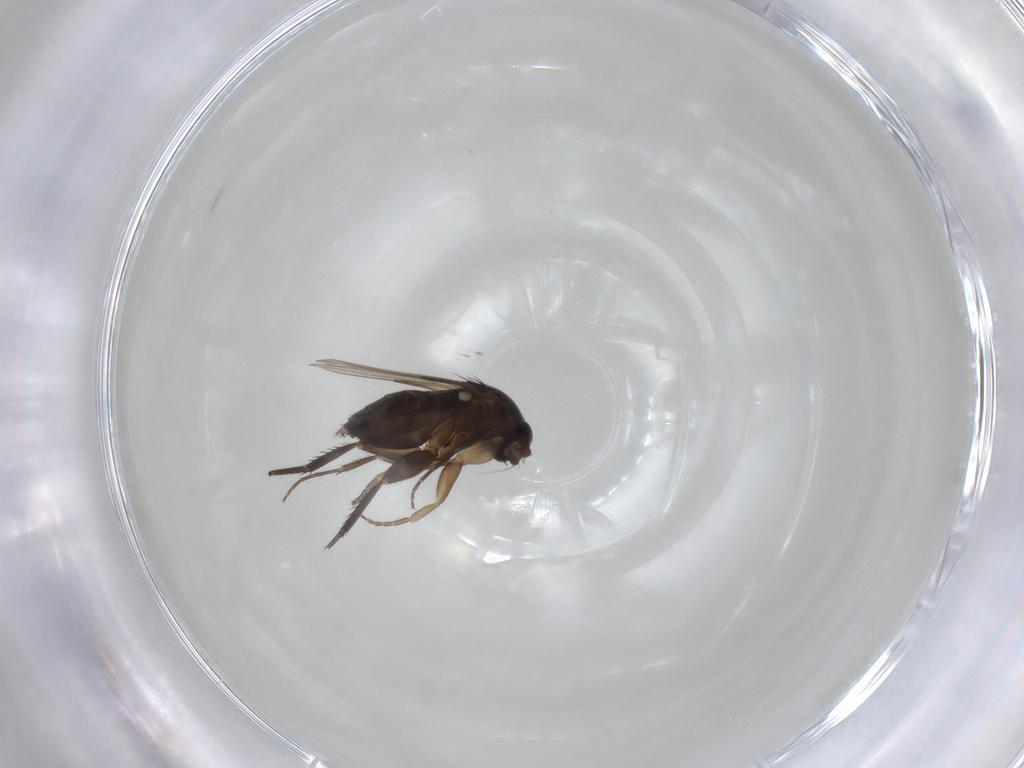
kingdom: Animalia
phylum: Arthropoda
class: Insecta
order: Diptera
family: Phoridae
